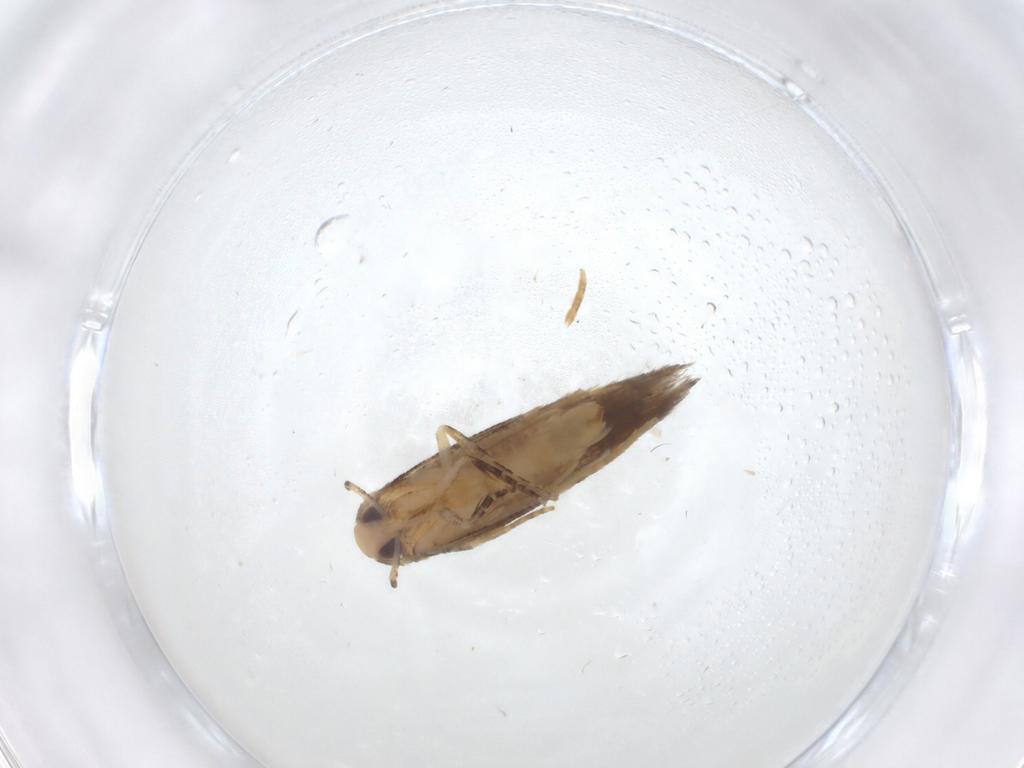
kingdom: Animalia
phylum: Arthropoda
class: Insecta
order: Lepidoptera
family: Cosmopterigidae
